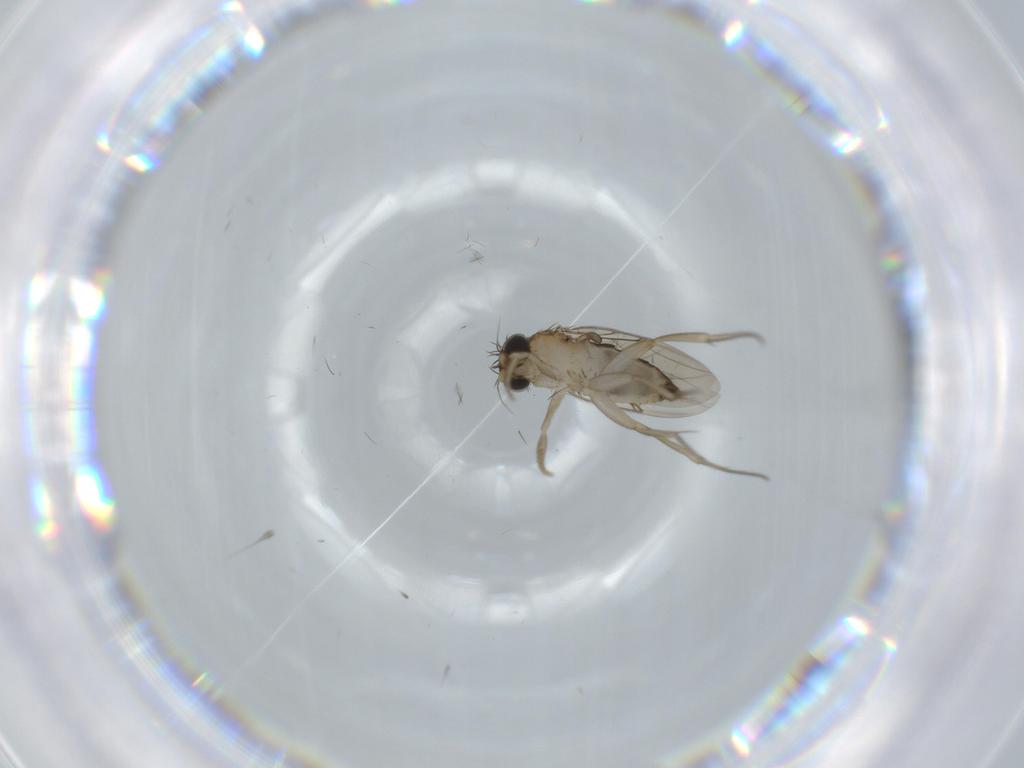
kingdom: Animalia
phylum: Arthropoda
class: Insecta
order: Diptera
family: Phoridae
